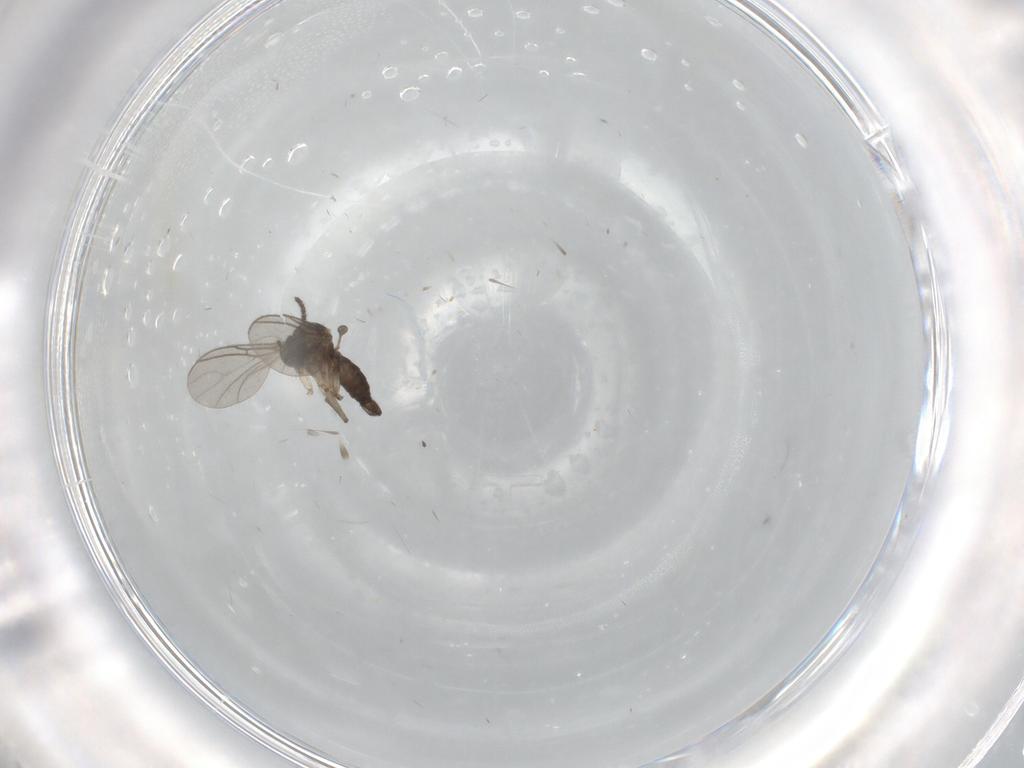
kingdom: Animalia
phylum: Arthropoda
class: Insecta
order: Diptera
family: Sciaridae
